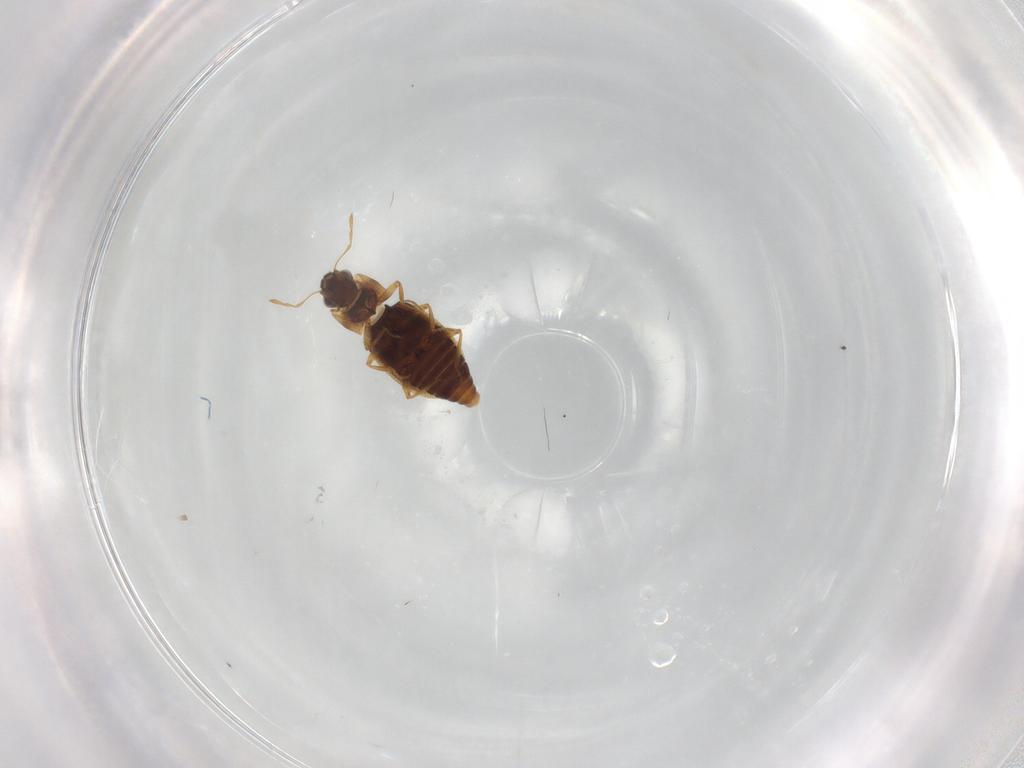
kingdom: Animalia
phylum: Arthropoda
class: Insecta
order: Coleoptera
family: Hydraenidae
